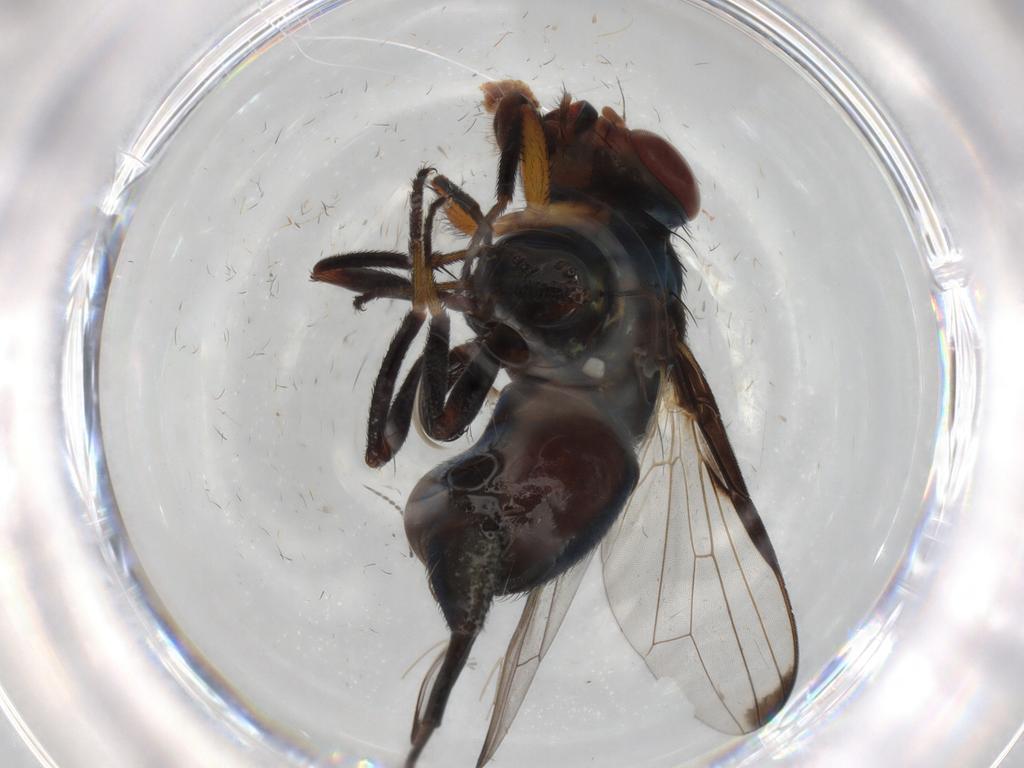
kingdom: Animalia
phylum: Arthropoda
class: Insecta
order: Diptera
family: Ulidiidae
